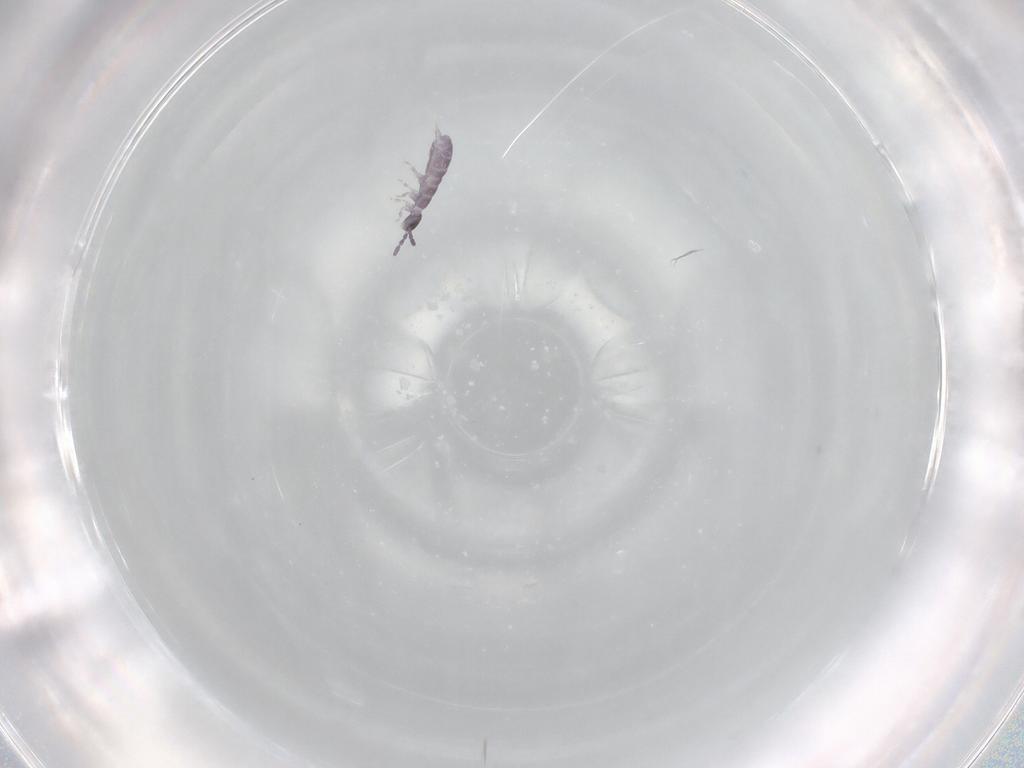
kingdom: Animalia
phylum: Arthropoda
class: Collembola
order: Entomobryomorpha
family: Isotomidae
